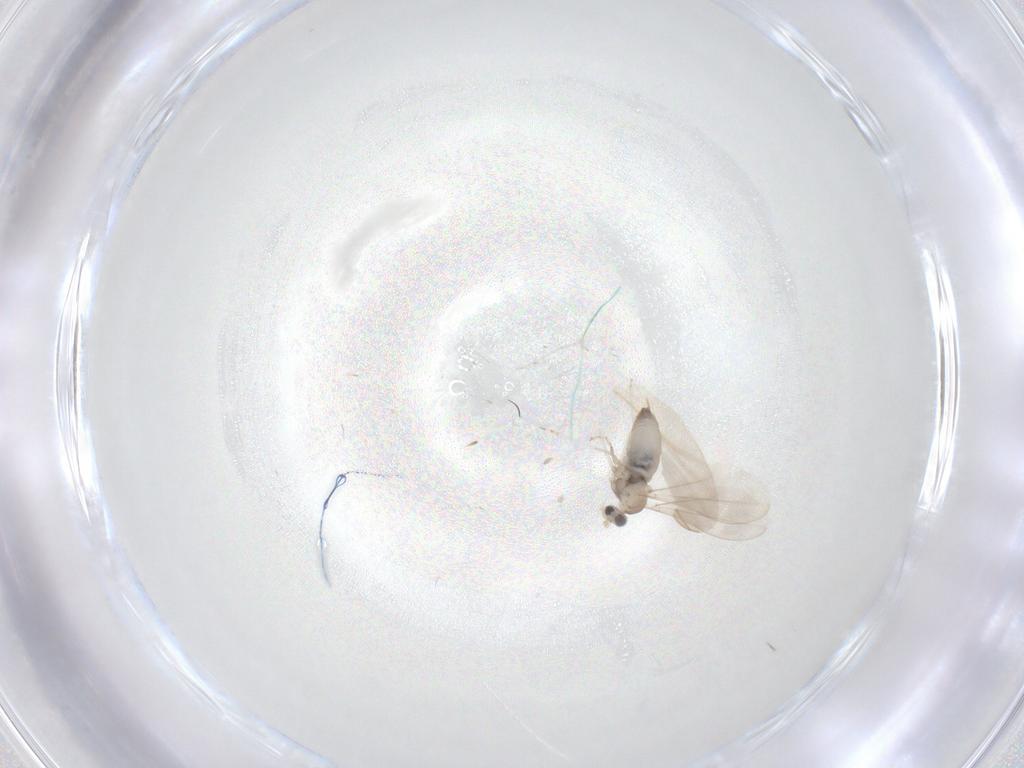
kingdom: Animalia
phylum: Arthropoda
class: Insecta
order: Diptera
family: Cecidomyiidae
